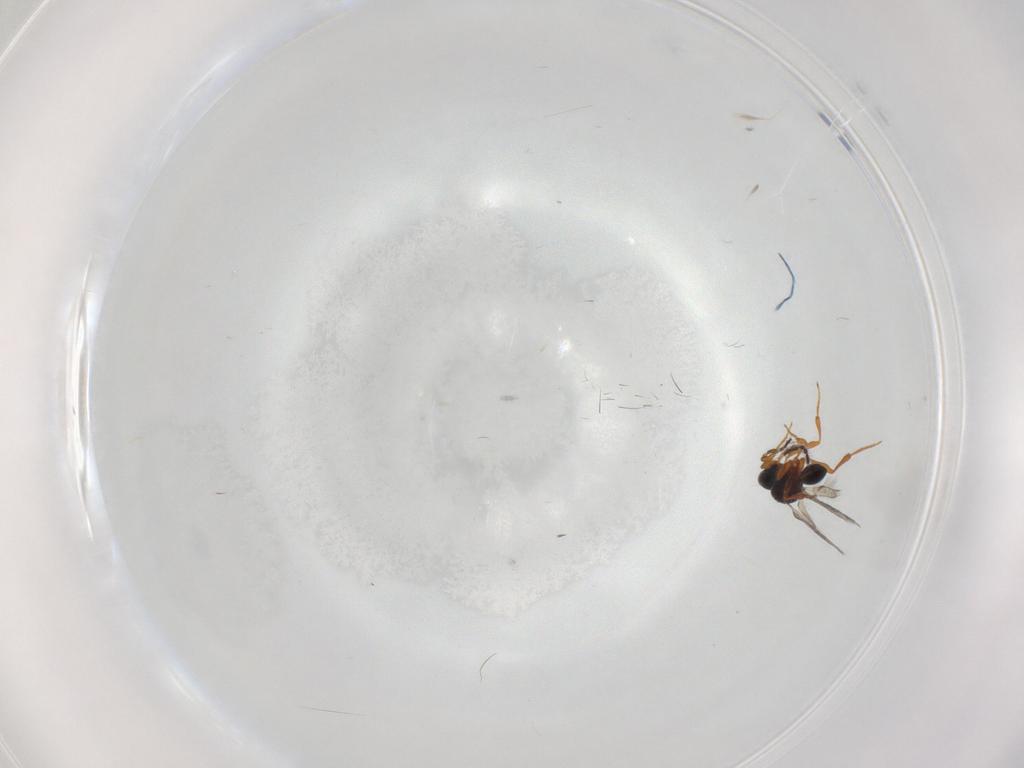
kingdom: Animalia
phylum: Arthropoda
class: Insecta
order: Hymenoptera
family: Platygastridae
